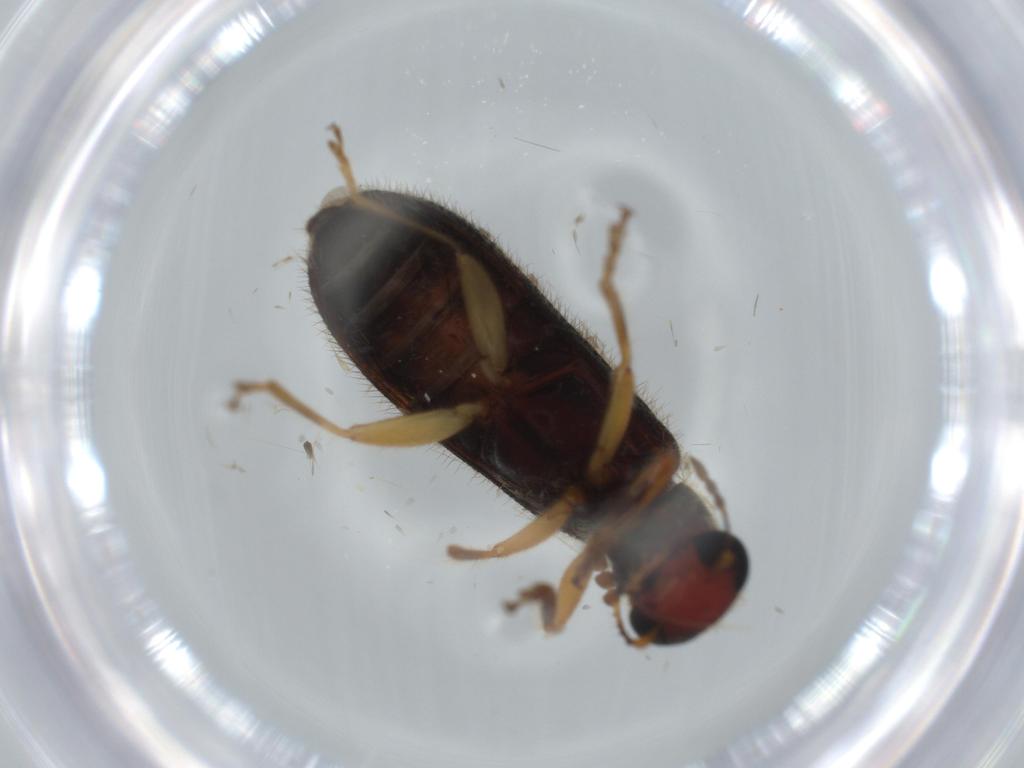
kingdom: Animalia
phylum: Arthropoda
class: Insecta
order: Coleoptera
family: Cleridae
